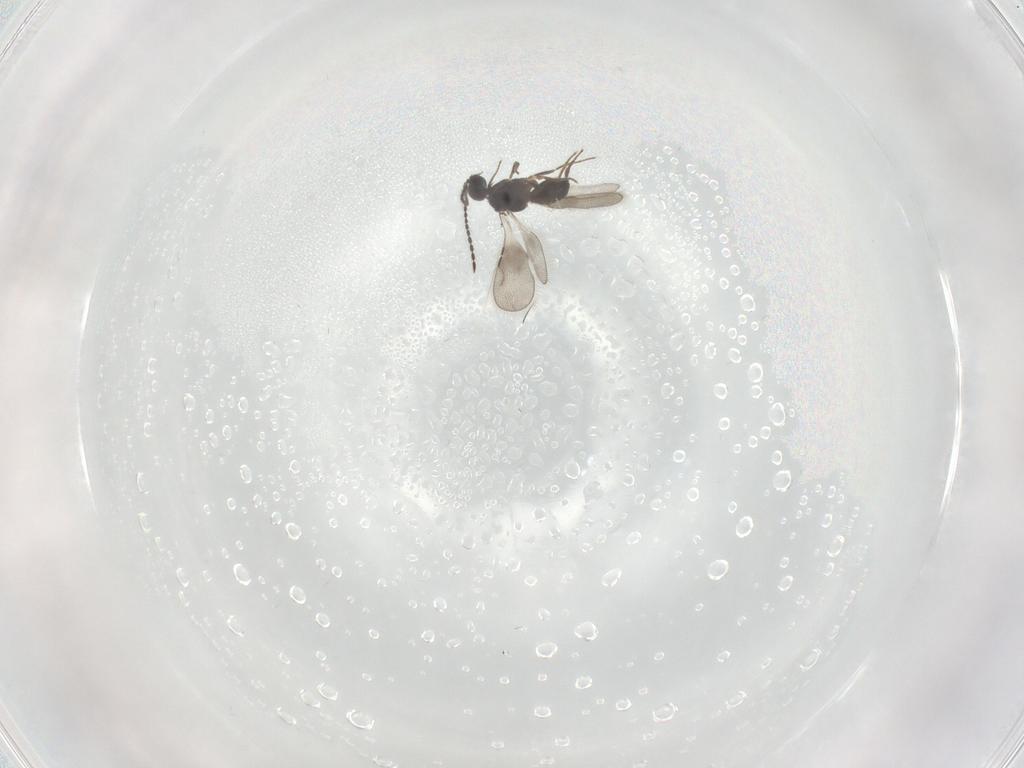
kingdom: Animalia
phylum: Arthropoda
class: Insecta
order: Hymenoptera
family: Ceraphronidae
